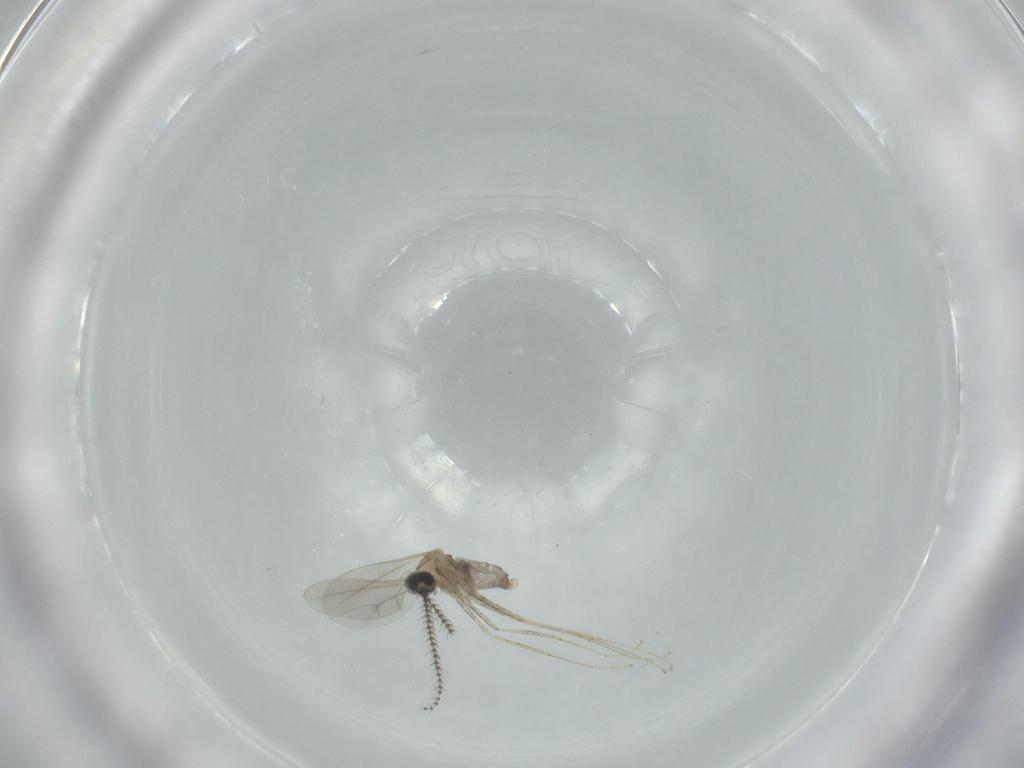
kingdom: Animalia
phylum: Arthropoda
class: Insecta
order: Diptera
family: Cecidomyiidae
